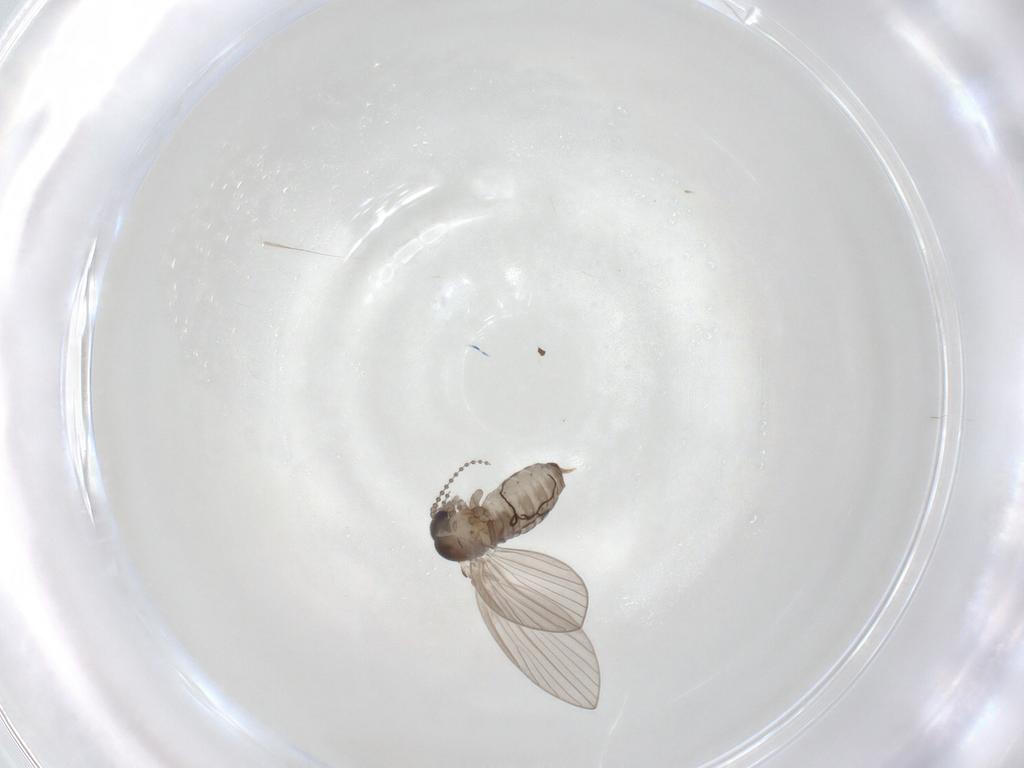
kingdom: Animalia
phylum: Arthropoda
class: Insecta
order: Diptera
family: Psychodidae
